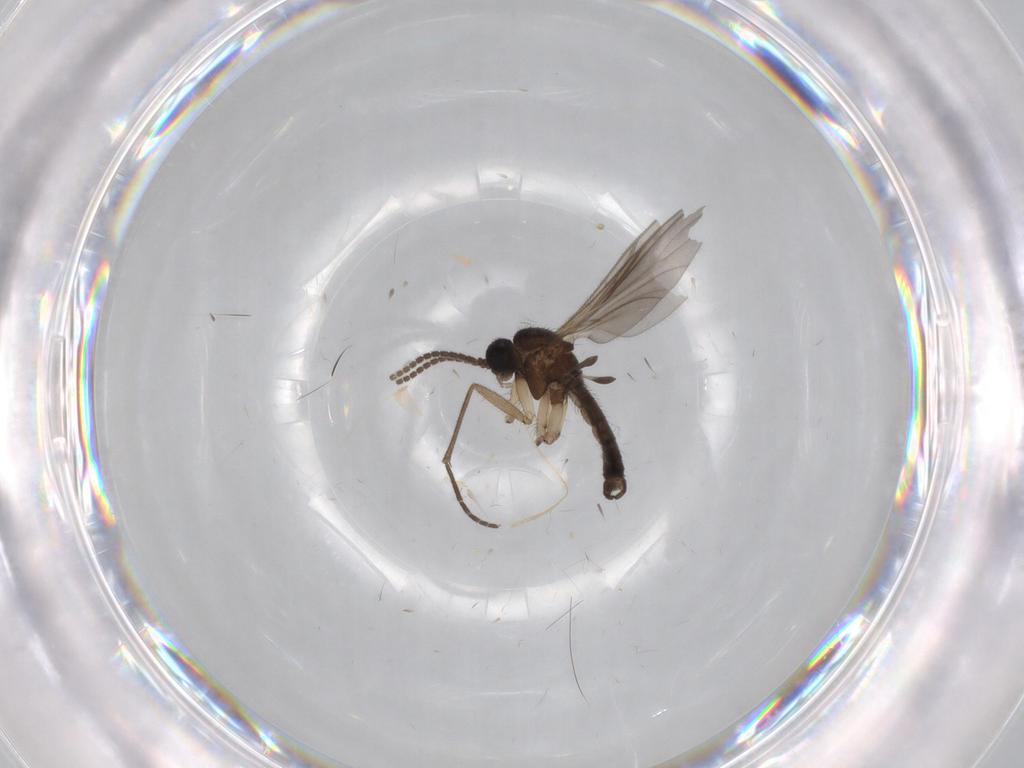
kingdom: Animalia
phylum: Arthropoda
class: Insecta
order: Diptera
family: Sciaridae
